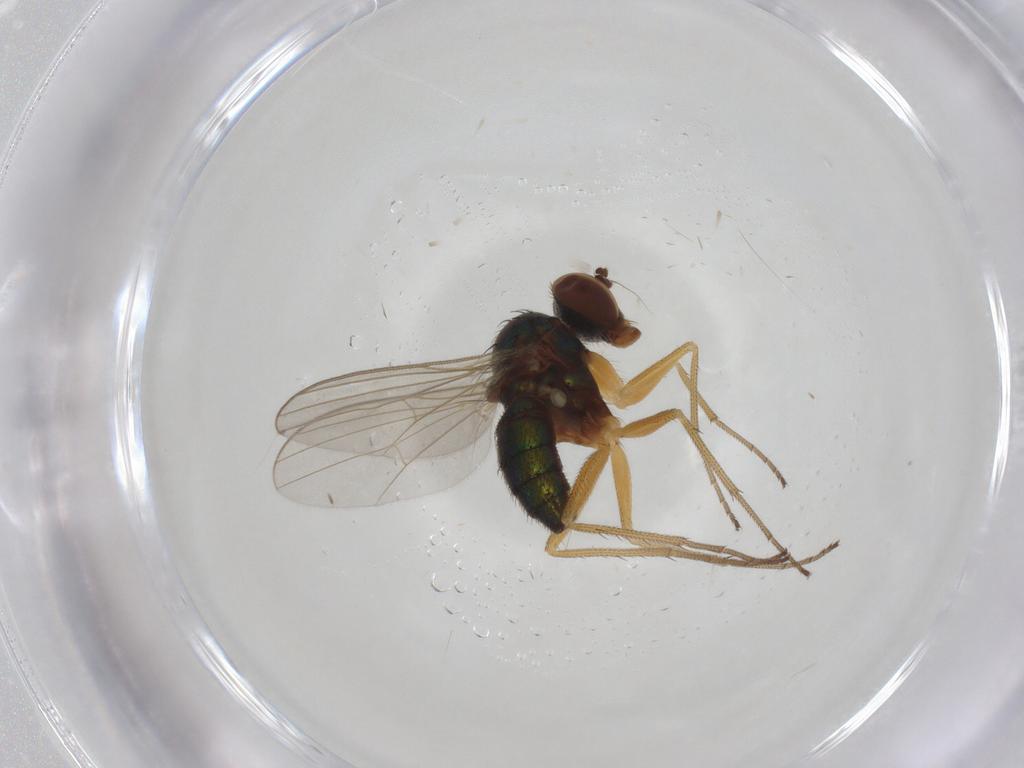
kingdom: Animalia
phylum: Arthropoda
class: Insecta
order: Diptera
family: Dolichopodidae
